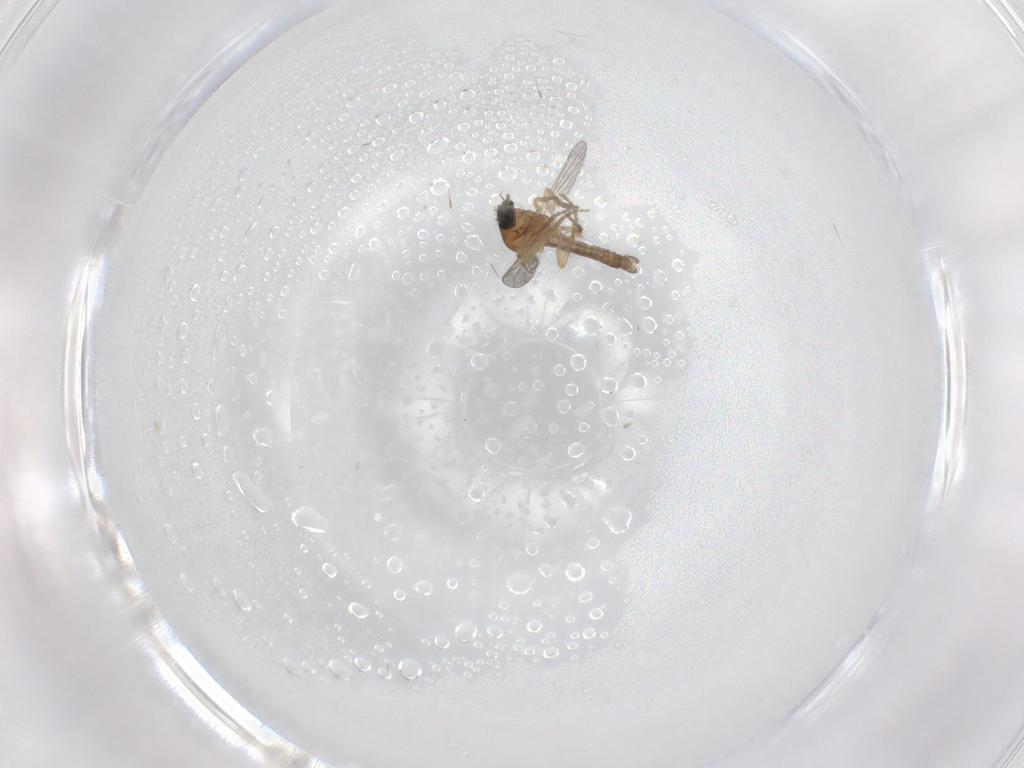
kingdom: Animalia
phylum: Arthropoda
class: Insecta
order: Diptera
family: Ceratopogonidae
